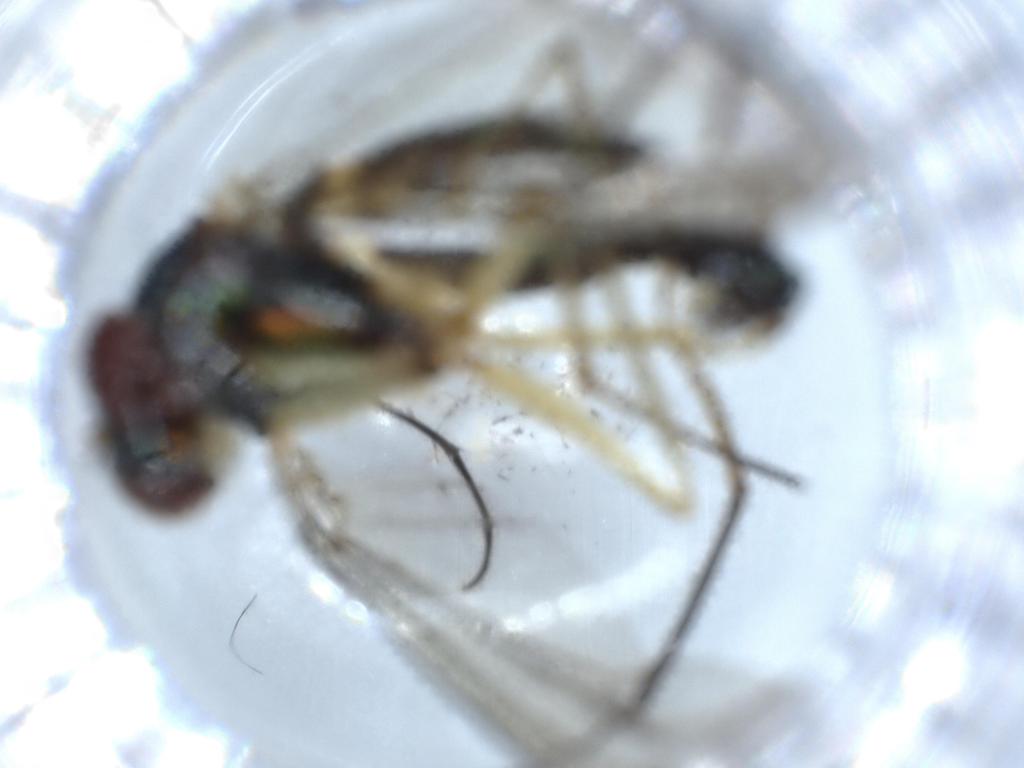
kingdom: Animalia
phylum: Arthropoda
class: Insecta
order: Diptera
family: Dolichopodidae
